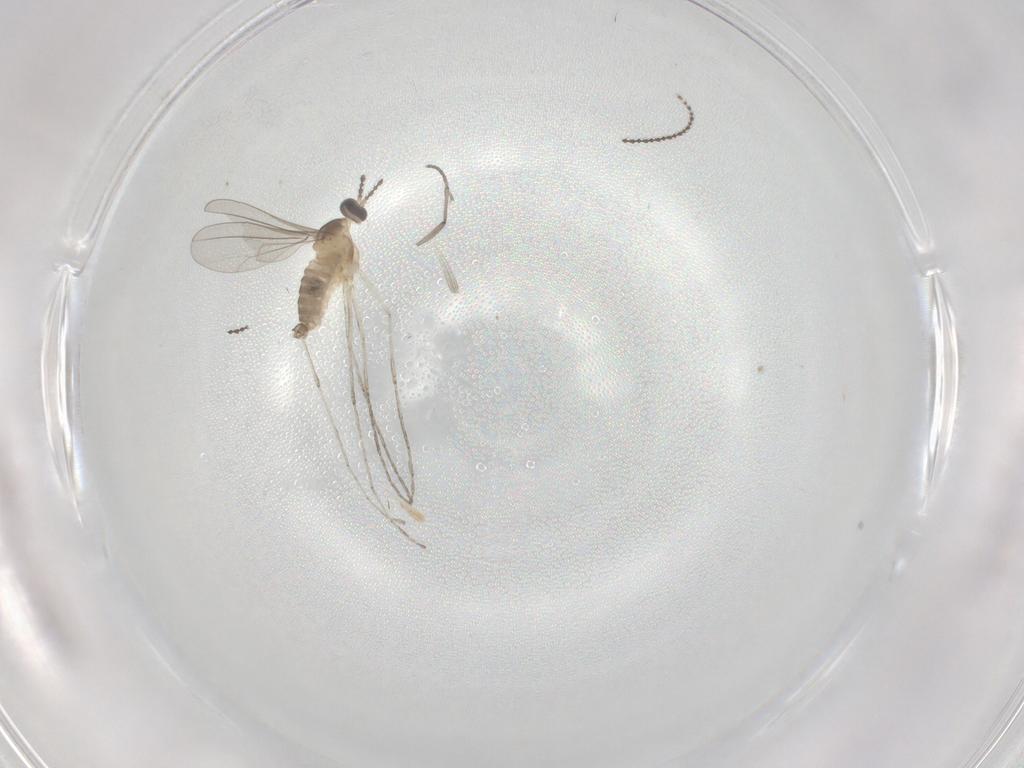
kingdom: Animalia
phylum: Arthropoda
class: Insecta
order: Diptera
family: Cecidomyiidae
